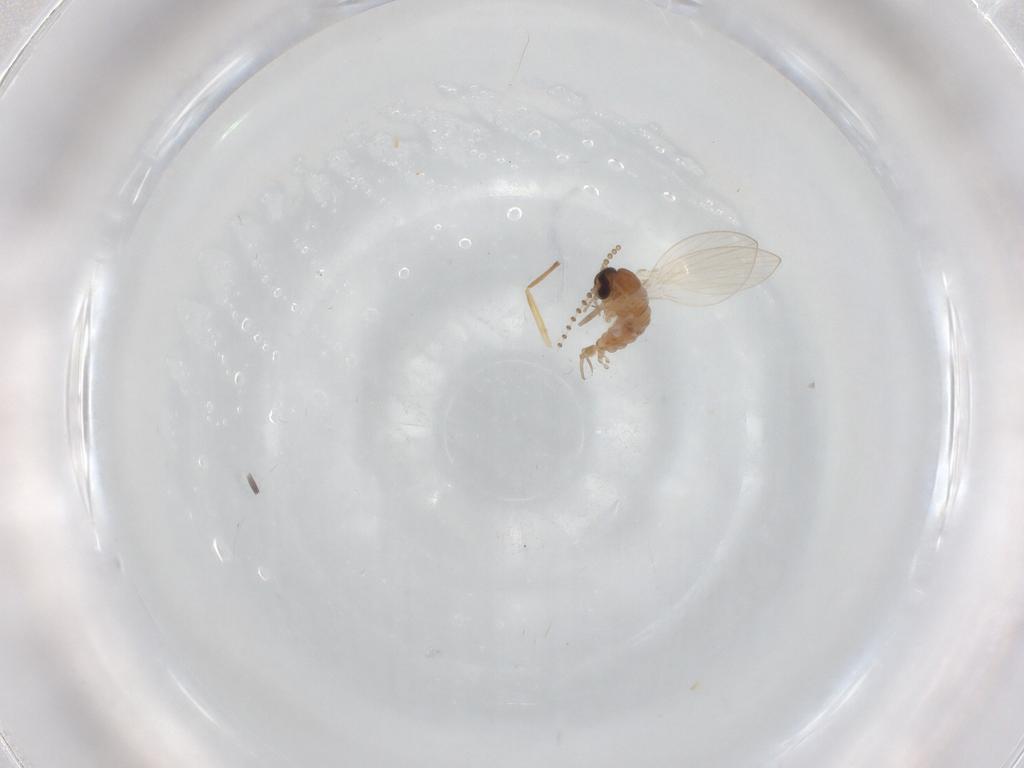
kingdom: Animalia
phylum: Arthropoda
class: Insecta
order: Diptera
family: Psychodidae
